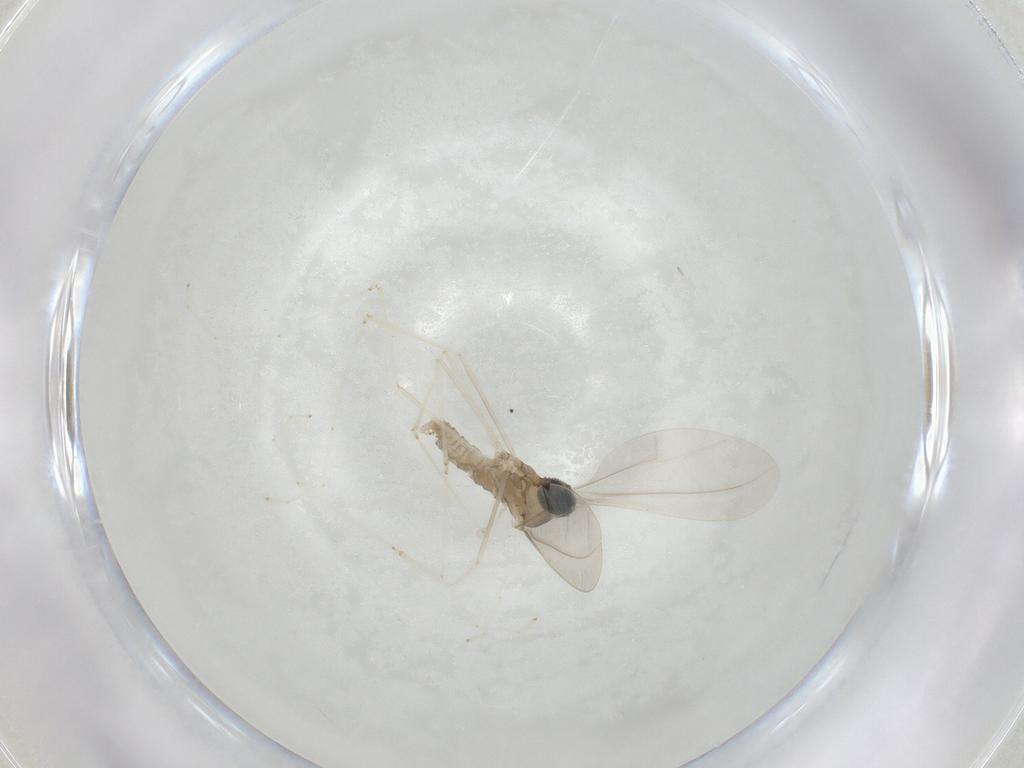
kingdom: Animalia
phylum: Arthropoda
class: Insecta
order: Diptera
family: Cecidomyiidae
